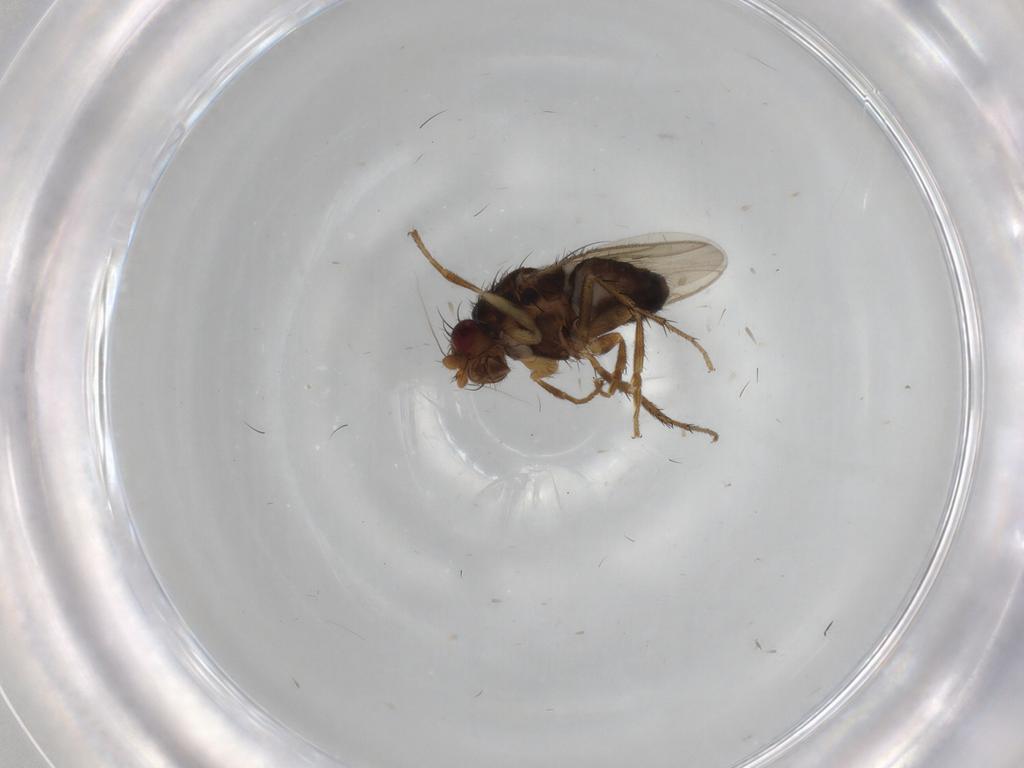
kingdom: Animalia
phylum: Arthropoda
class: Insecta
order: Diptera
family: Sphaeroceridae
